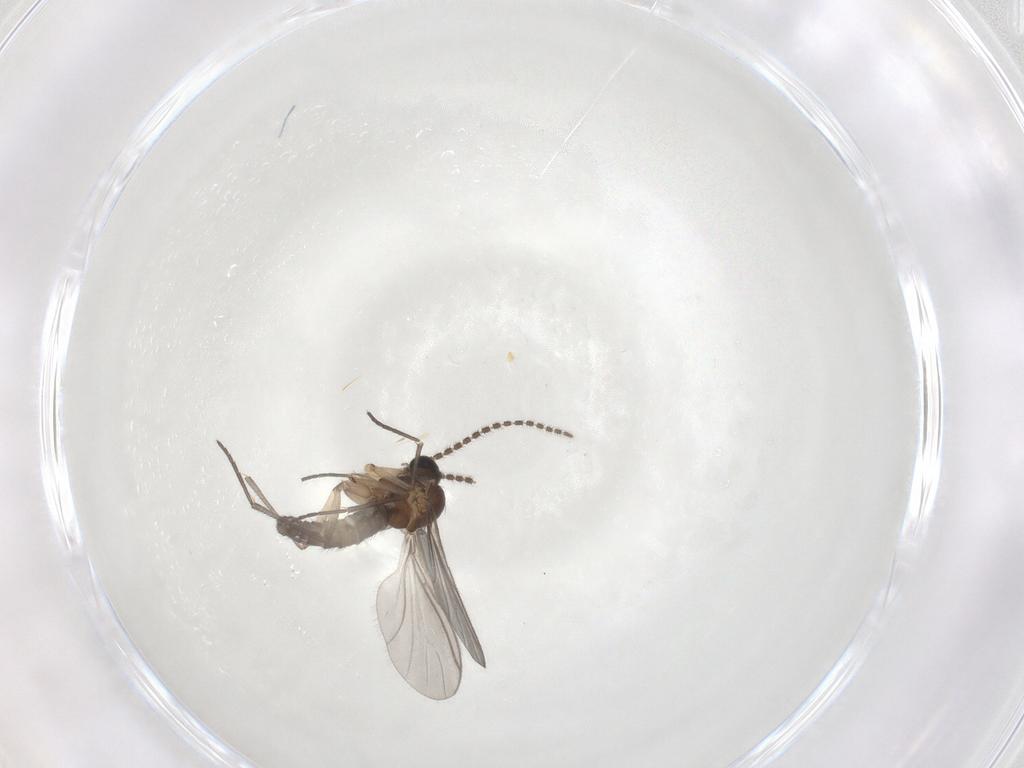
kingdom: Animalia
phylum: Arthropoda
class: Insecta
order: Diptera
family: Sciaridae
